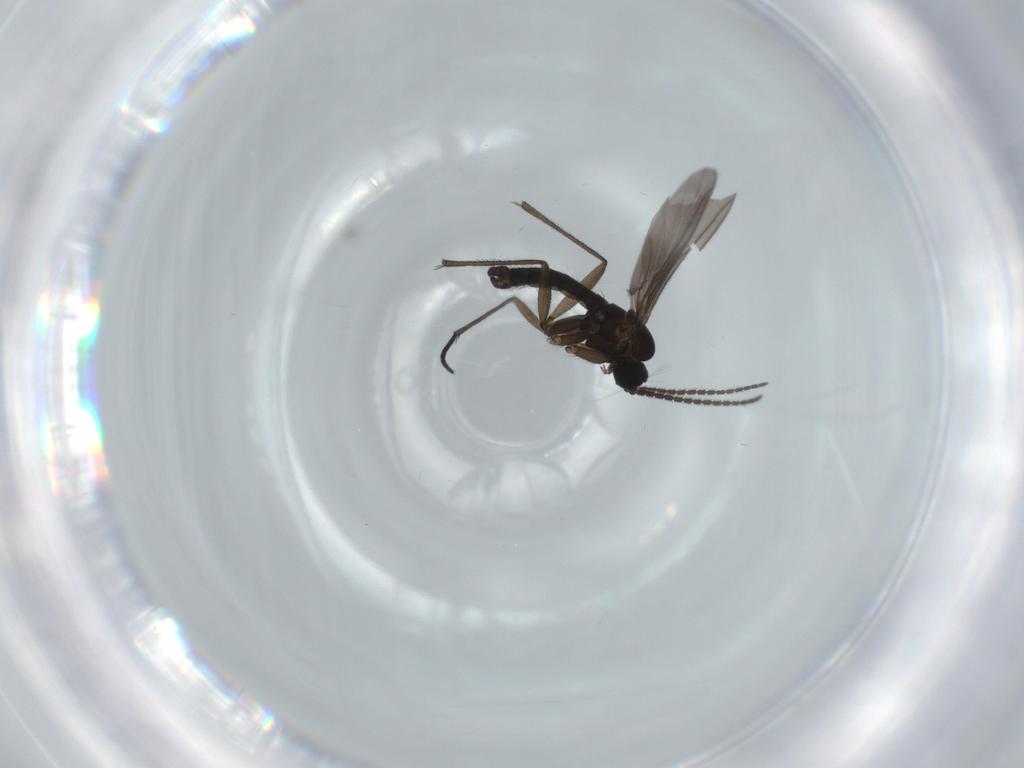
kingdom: Animalia
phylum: Arthropoda
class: Insecta
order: Diptera
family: Sciaridae
